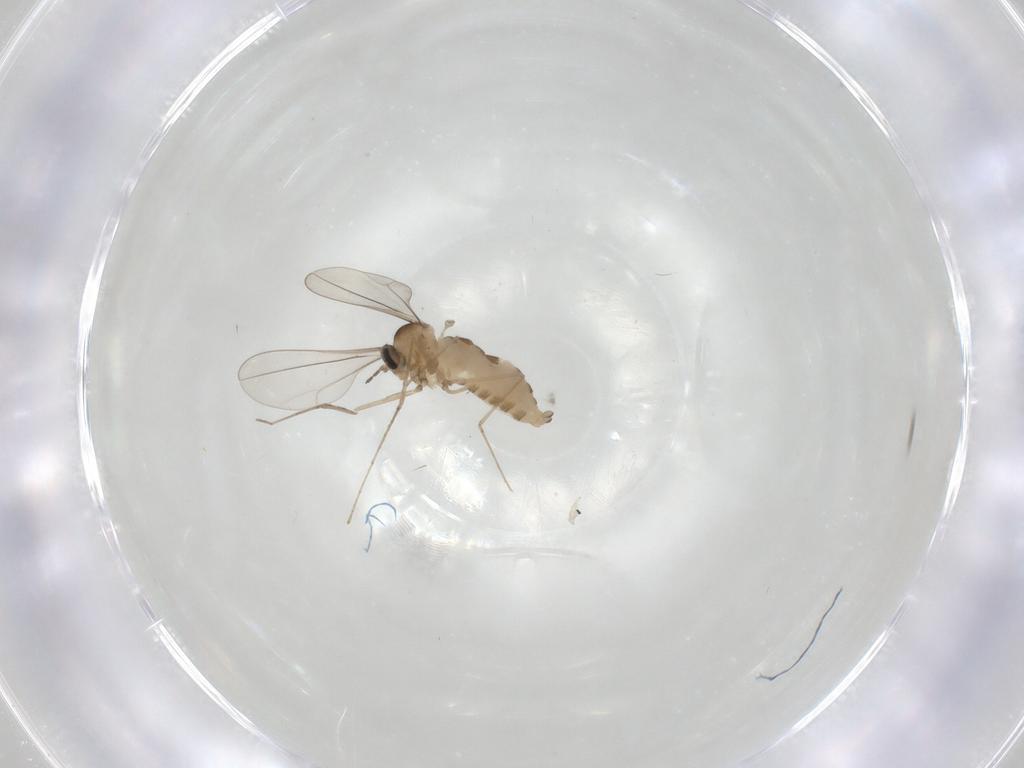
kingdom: Animalia
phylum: Arthropoda
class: Insecta
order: Diptera
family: Cecidomyiidae
